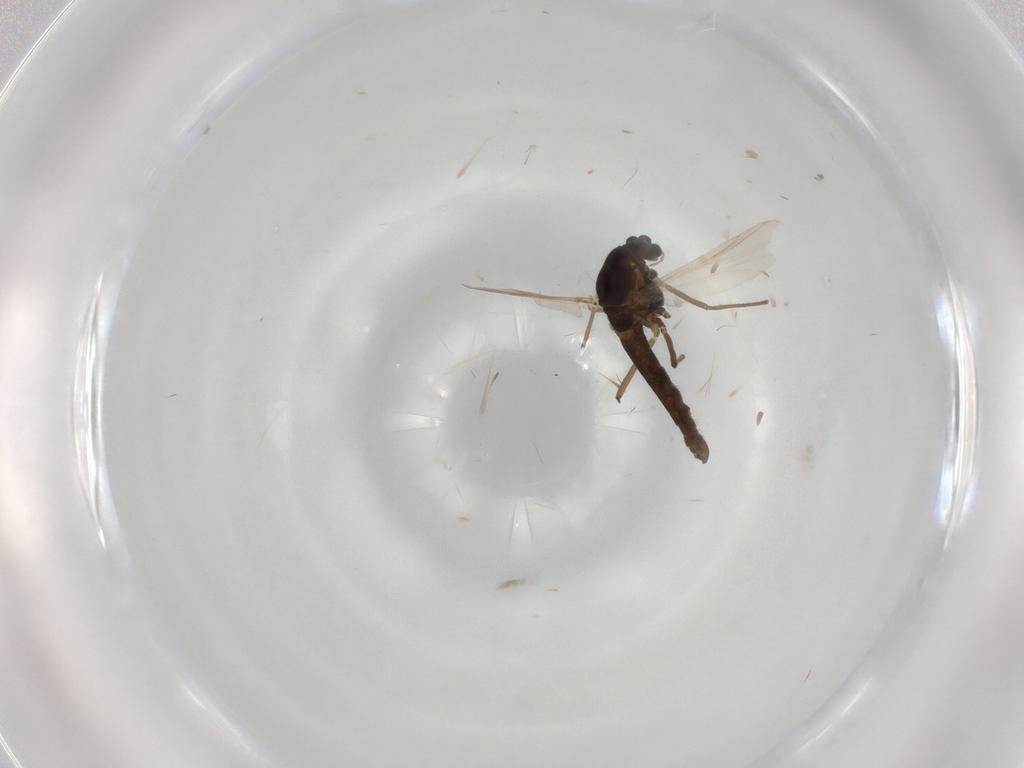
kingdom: Animalia
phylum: Arthropoda
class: Insecta
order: Diptera
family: Chironomidae
